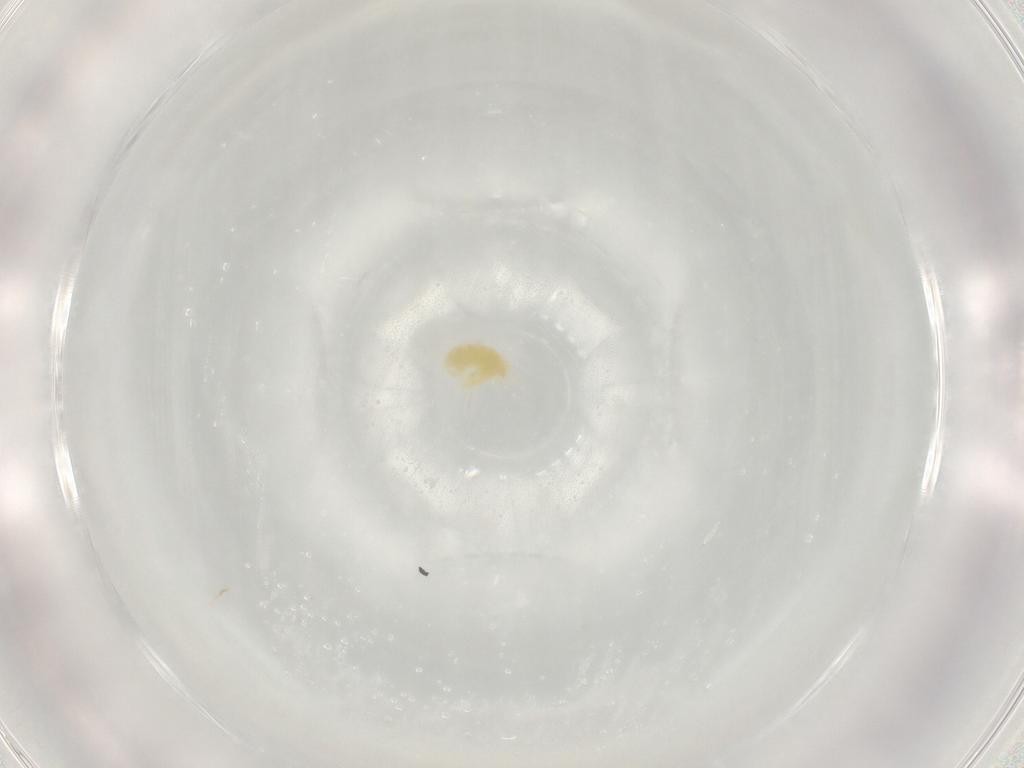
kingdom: Animalia
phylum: Arthropoda
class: Arachnida
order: Trombidiformes
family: Tetranychidae
